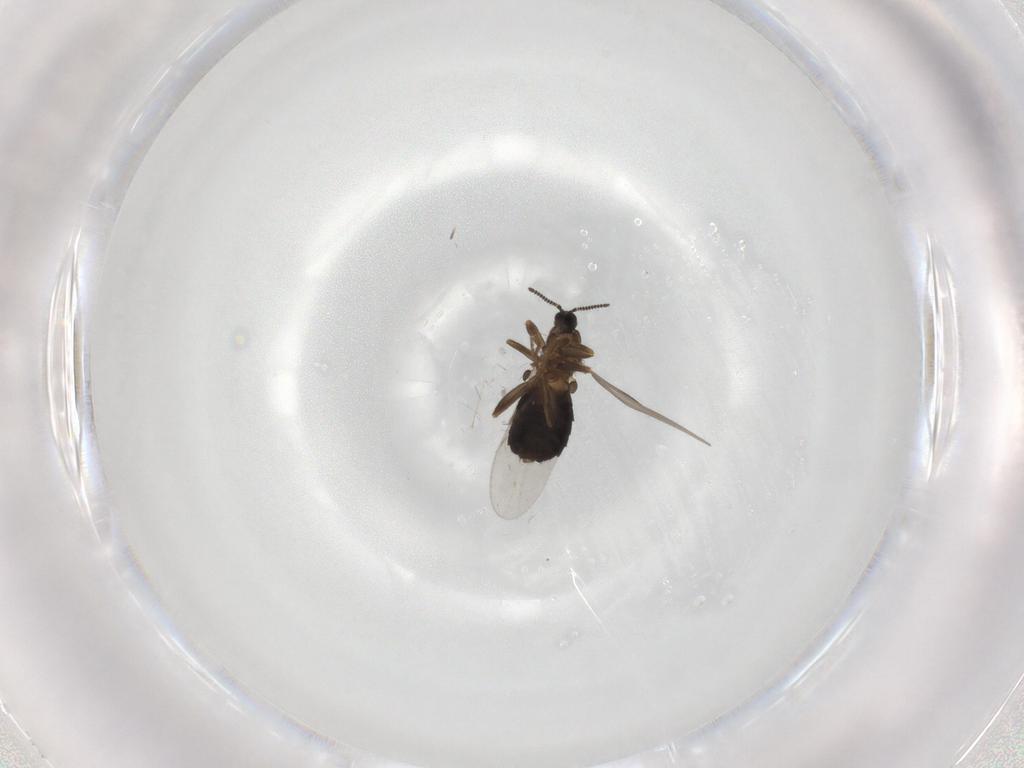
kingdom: Animalia
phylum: Arthropoda
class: Insecta
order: Diptera
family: Scatopsidae
